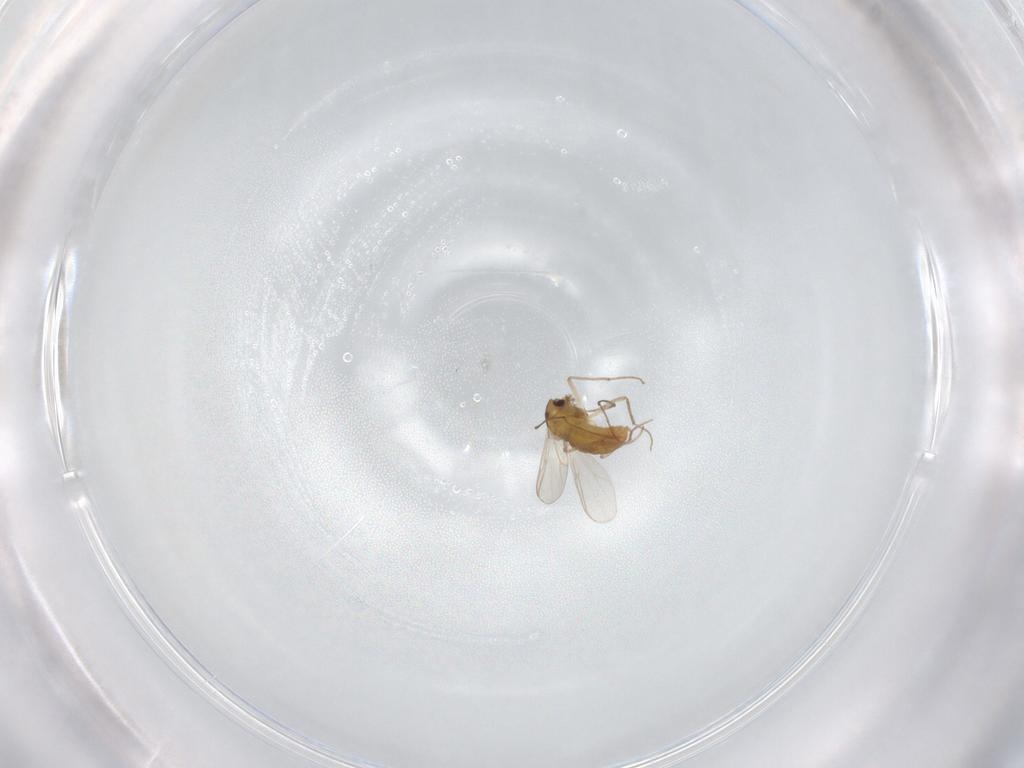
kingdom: Animalia
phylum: Arthropoda
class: Insecta
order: Diptera
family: Chironomidae
